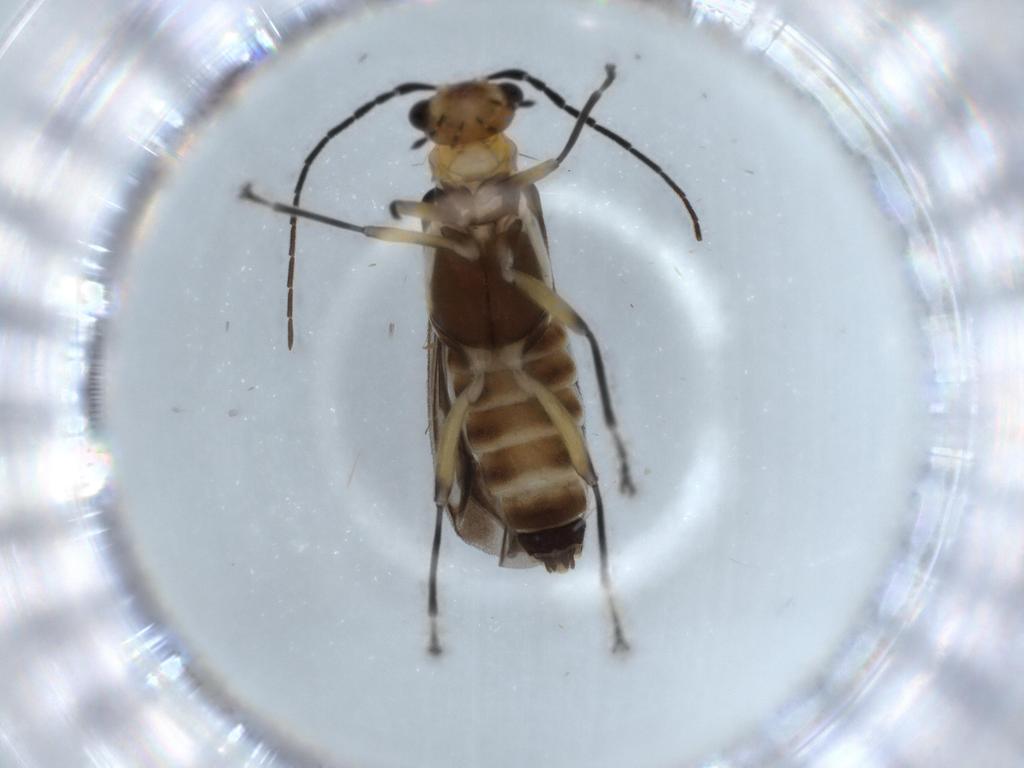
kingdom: Animalia
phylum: Arthropoda
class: Insecta
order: Coleoptera
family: Cantharidae
